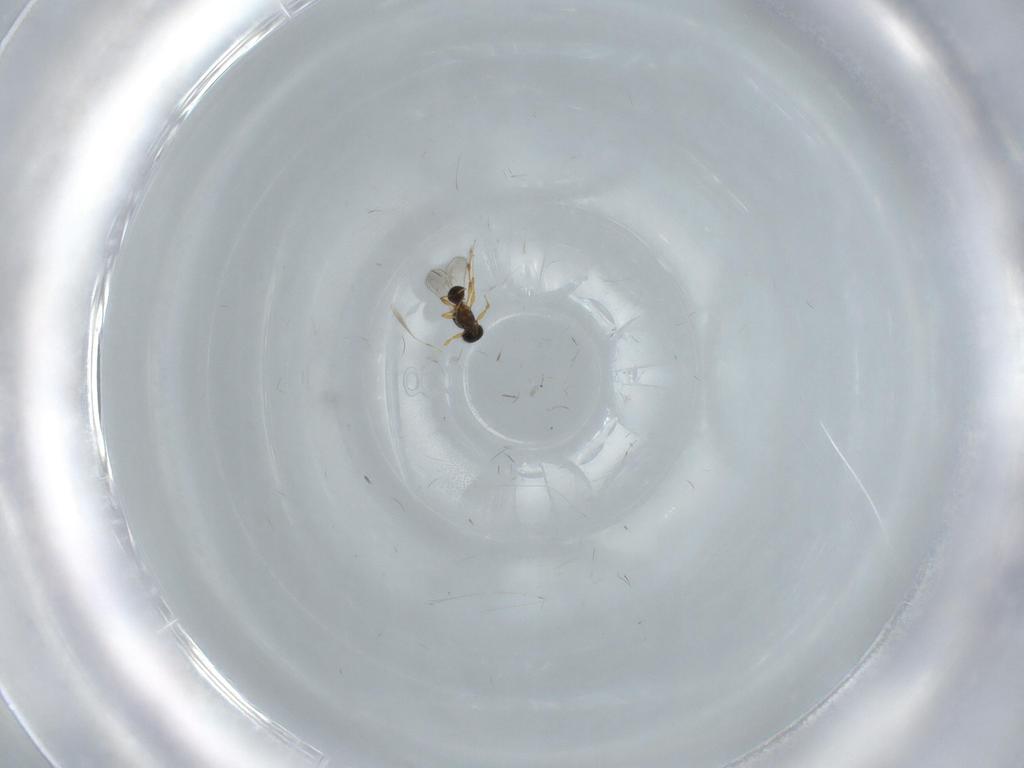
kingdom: Animalia
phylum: Arthropoda
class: Insecta
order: Hymenoptera
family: Platygastridae
